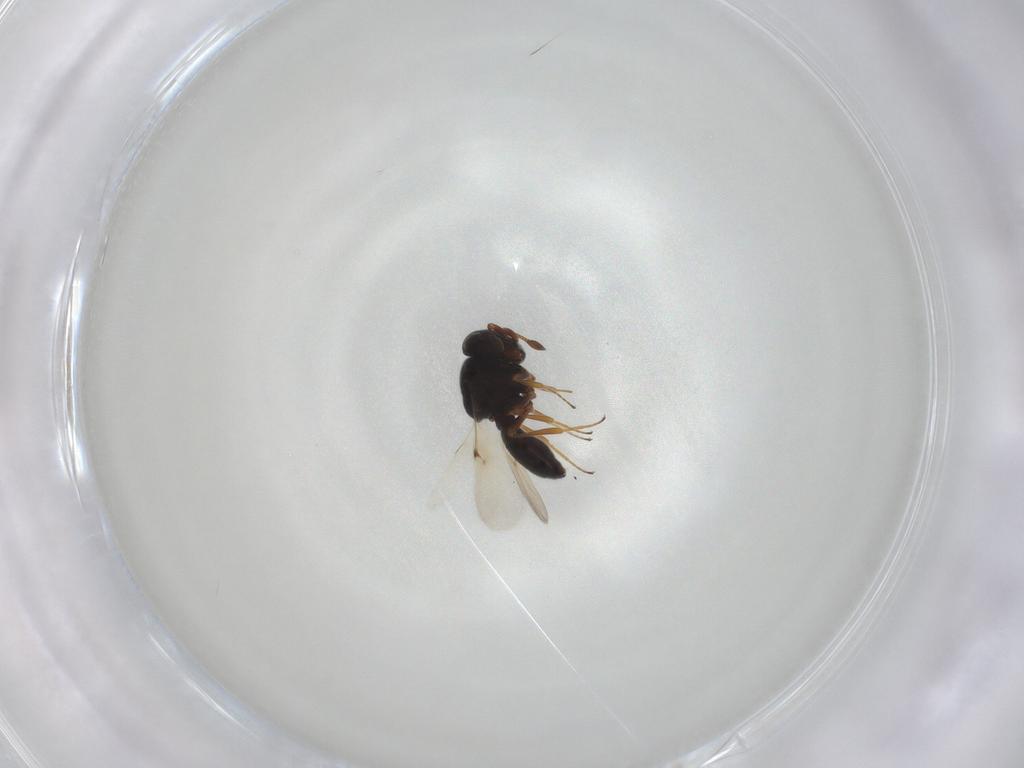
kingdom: Animalia
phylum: Arthropoda
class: Insecta
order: Hymenoptera
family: Scelionidae
